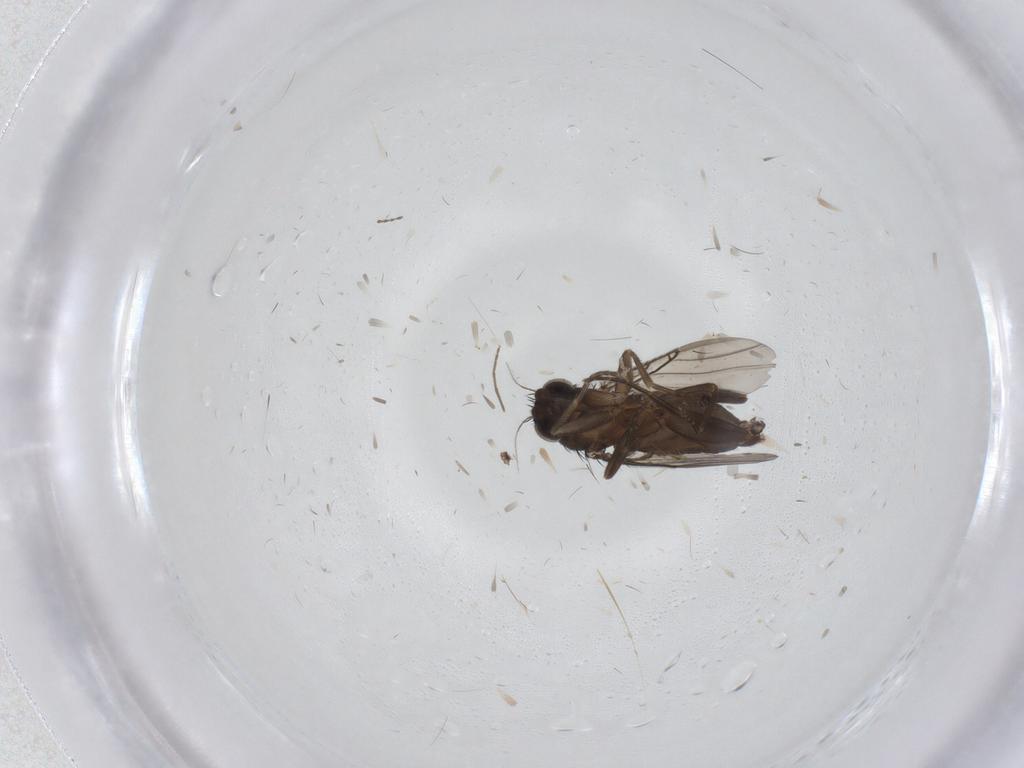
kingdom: Animalia
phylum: Arthropoda
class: Insecta
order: Diptera
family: Phoridae
